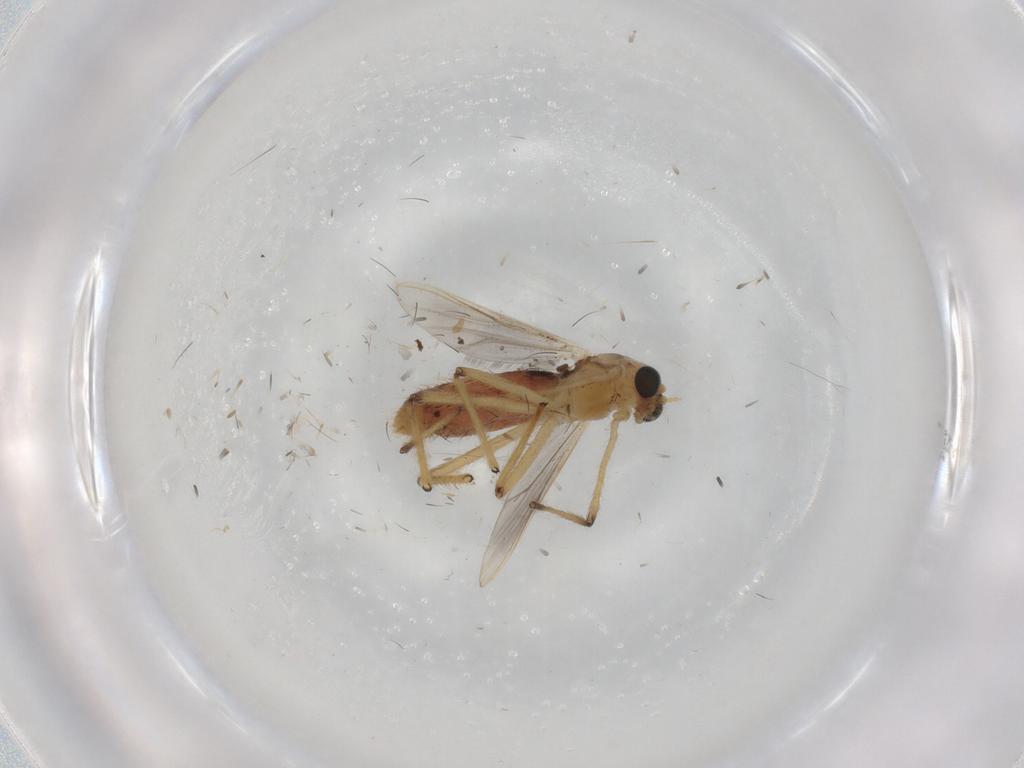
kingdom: Animalia
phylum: Arthropoda
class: Insecta
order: Diptera
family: Chironomidae
